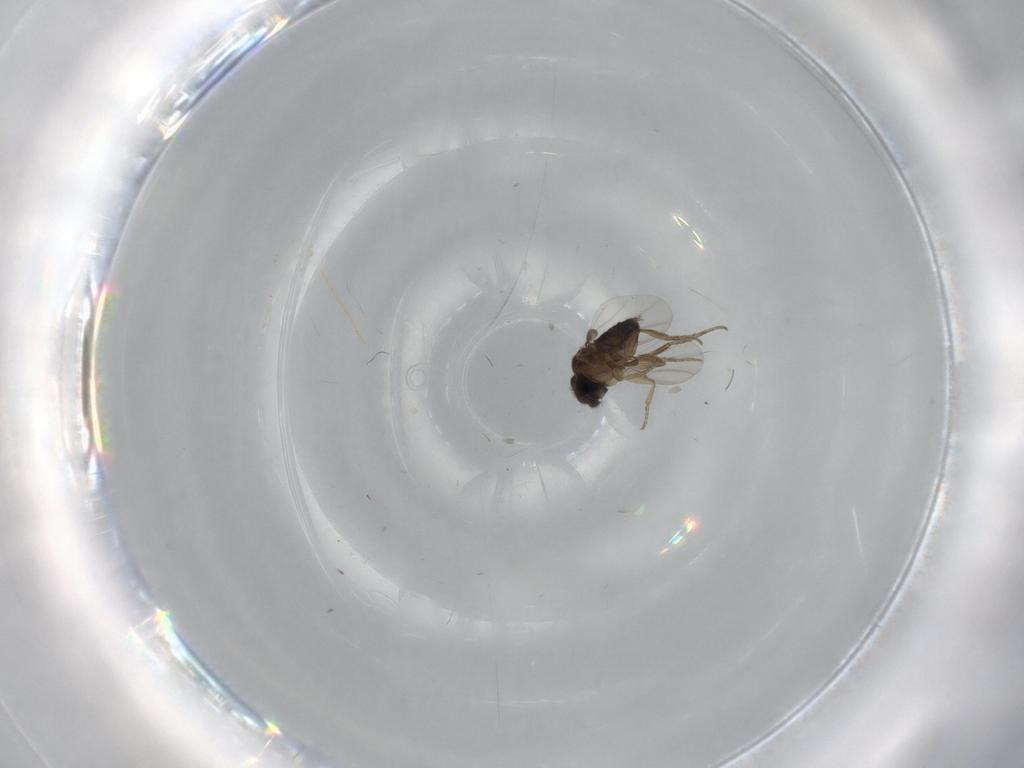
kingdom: Animalia
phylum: Arthropoda
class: Insecta
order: Diptera
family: Phoridae
